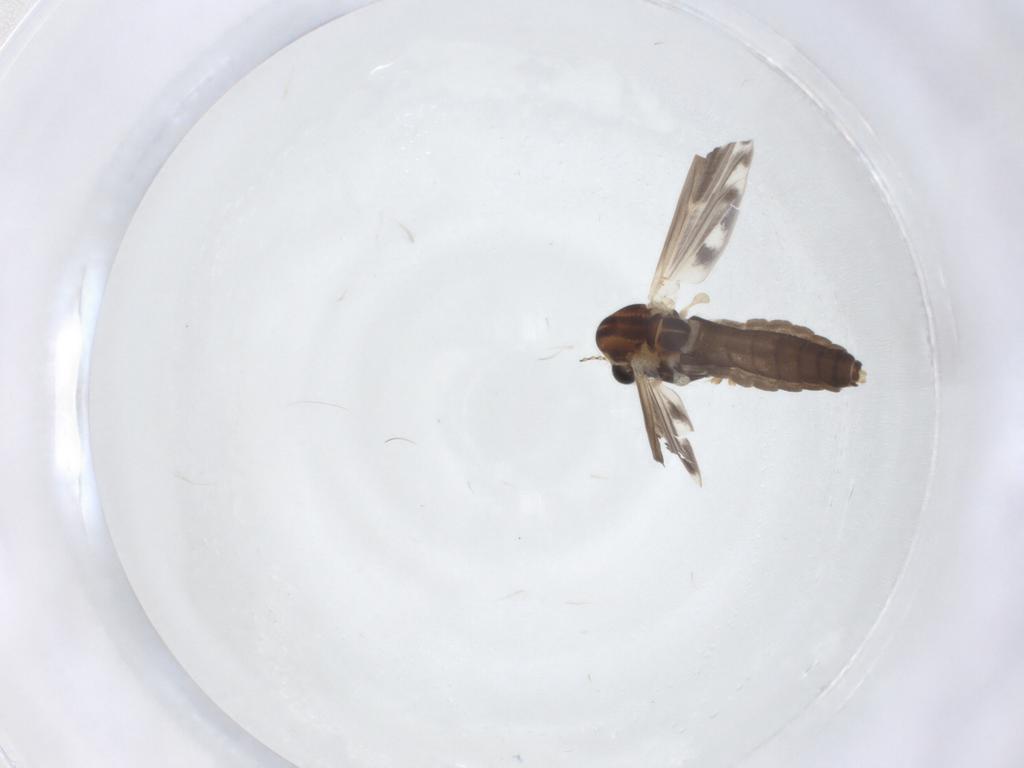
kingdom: Animalia
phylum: Arthropoda
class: Insecta
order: Diptera
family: Chironomidae
